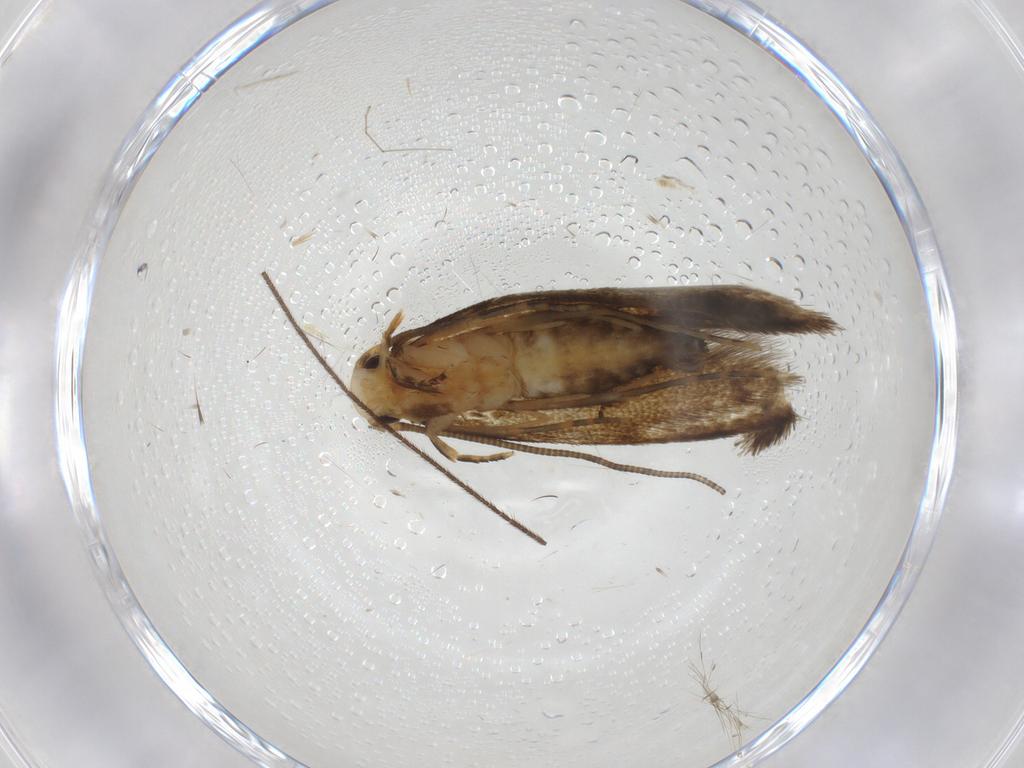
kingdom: Animalia
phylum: Arthropoda
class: Insecta
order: Lepidoptera
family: Tineidae
